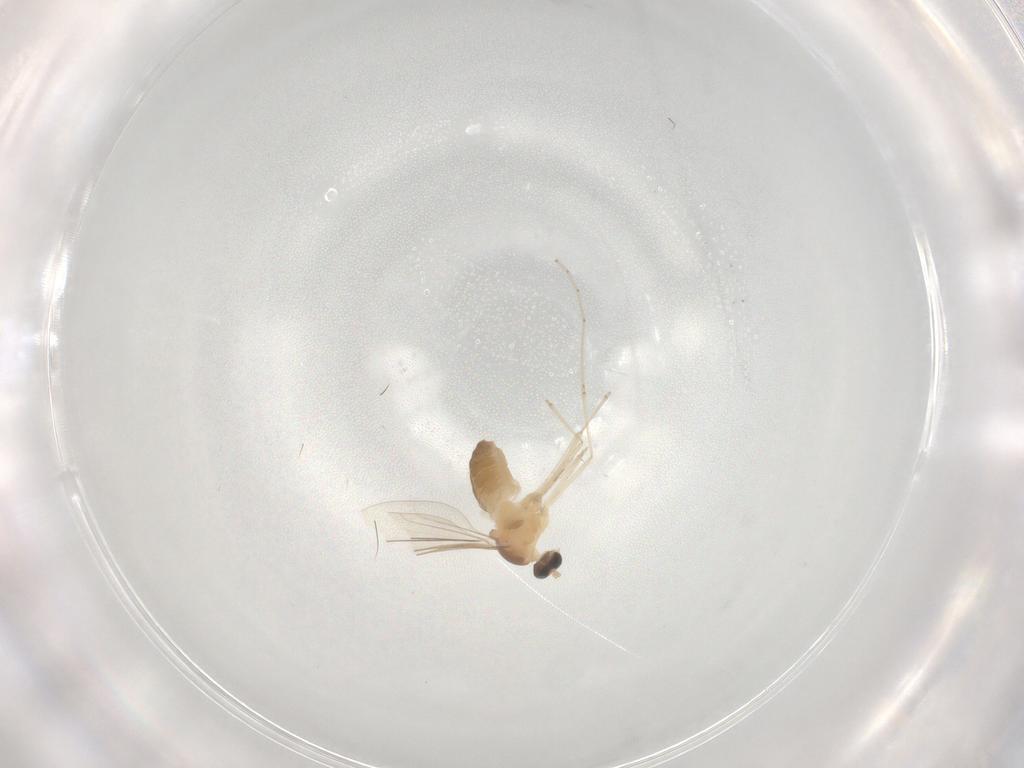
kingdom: Animalia
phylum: Arthropoda
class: Insecta
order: Diptera
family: Cecidomyiidae
